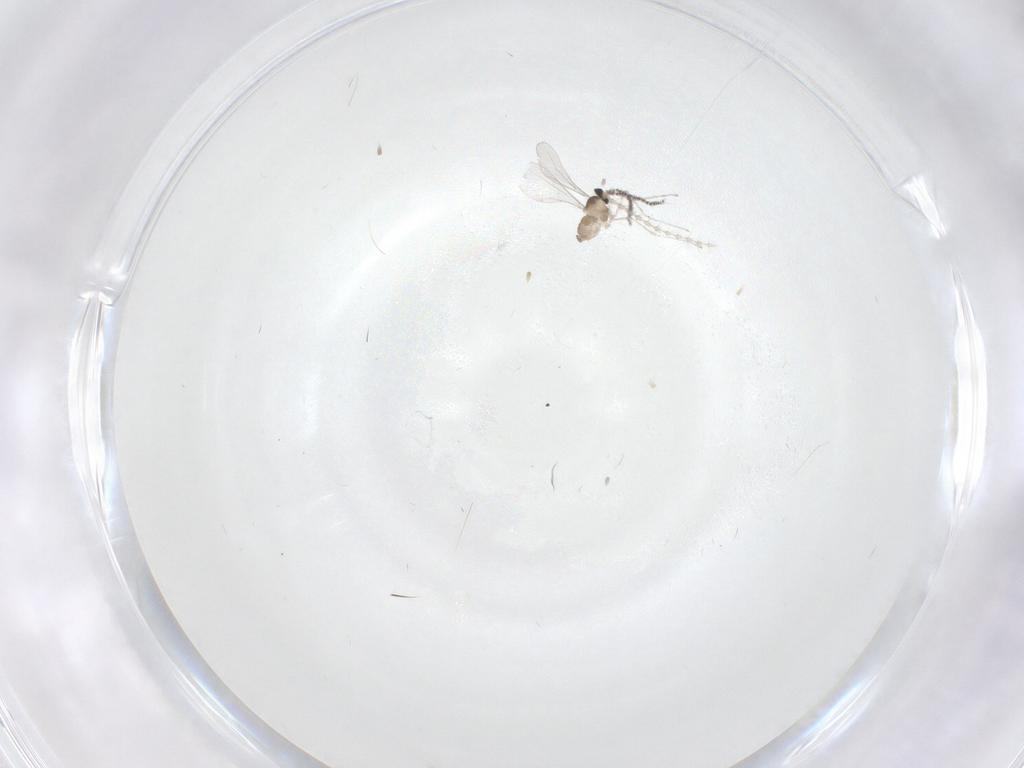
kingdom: Animalia
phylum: Arthropoda
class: Insecta
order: Diptera
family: Cecidomyiidae
